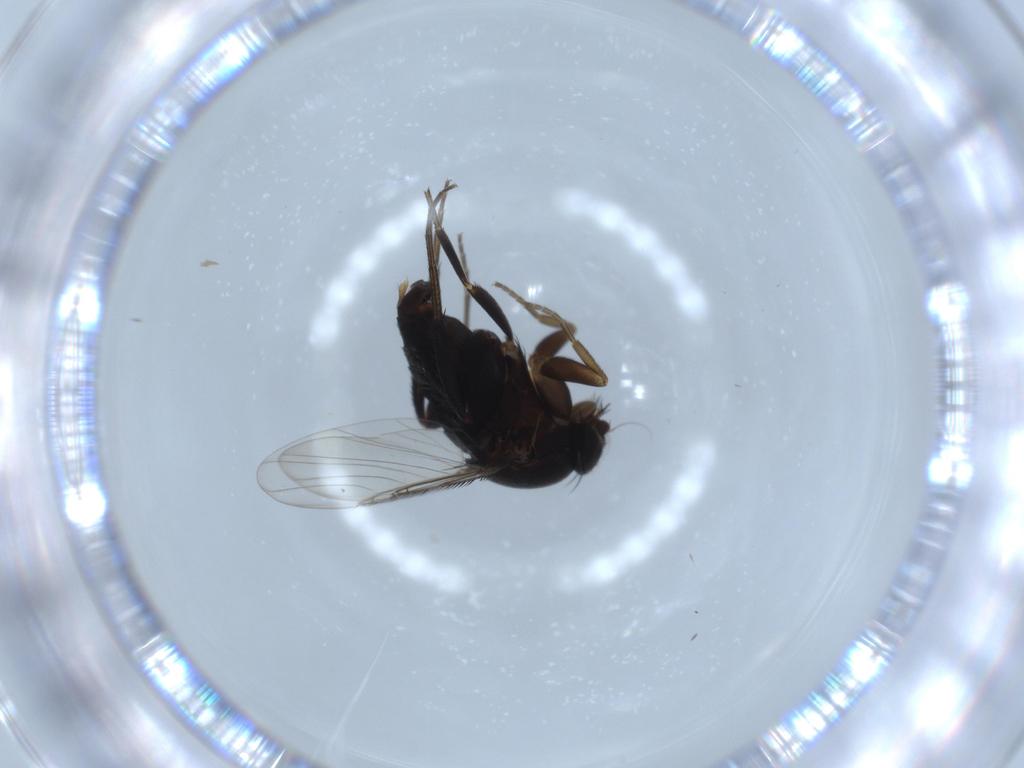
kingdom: Animalia
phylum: Arthropoda
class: Insecta
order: Diptera
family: Phoridae
